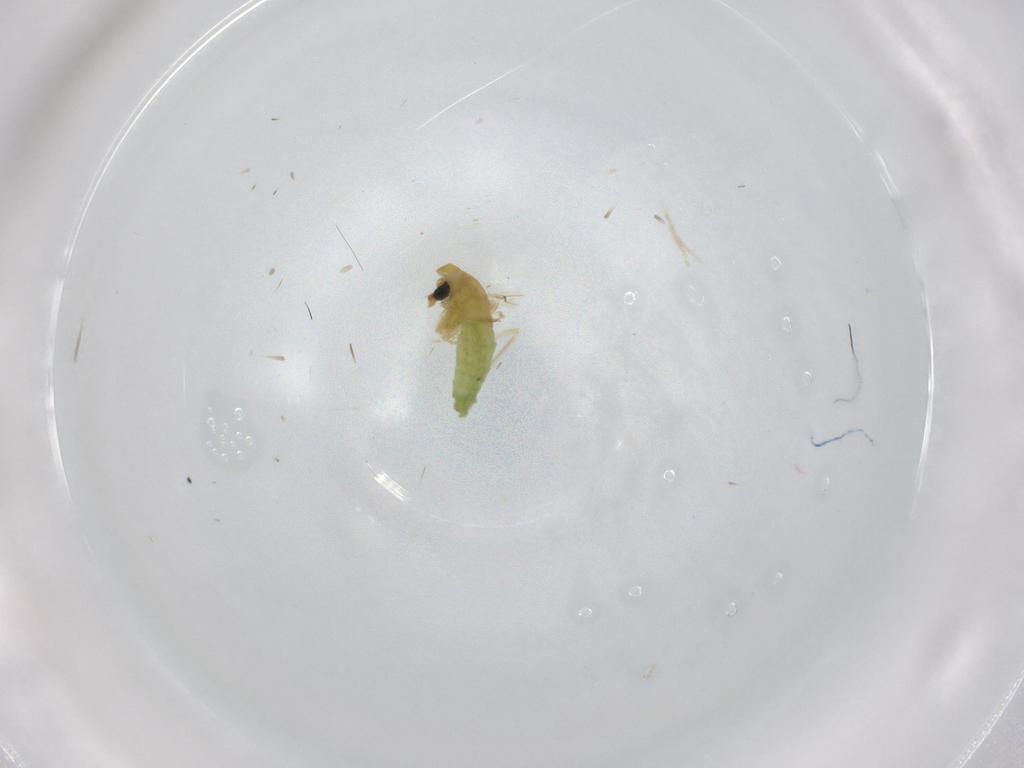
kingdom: Animalia
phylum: Arthropoda
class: Insecta
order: Diptera
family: Chironomidae
